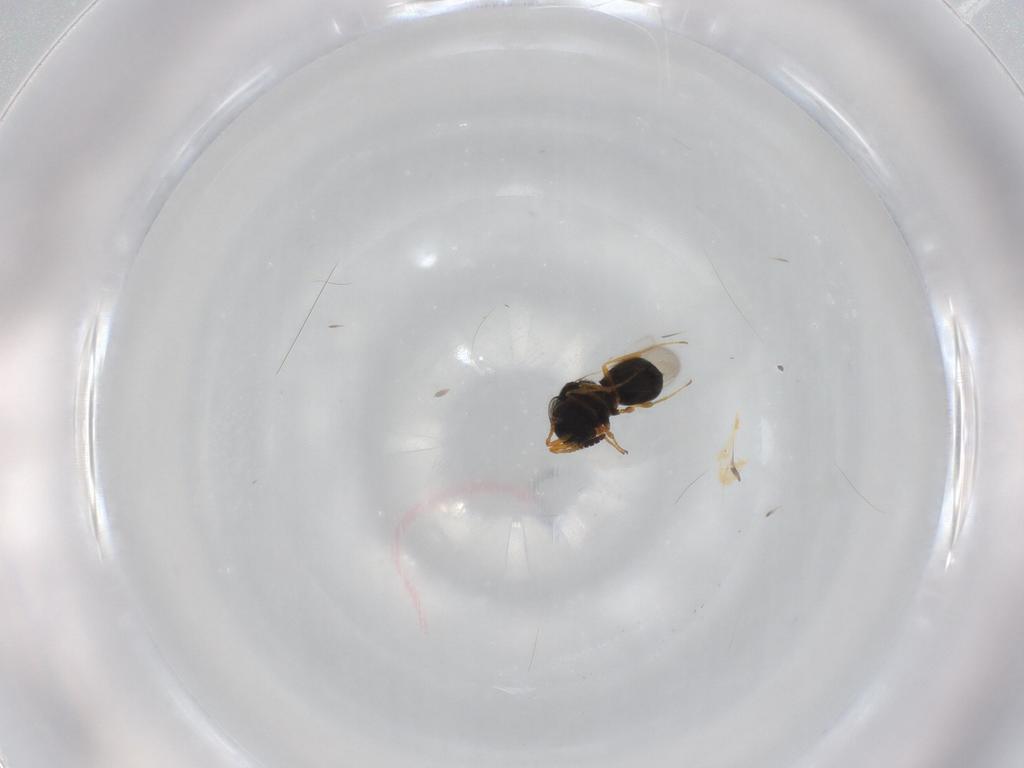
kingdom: Animalia
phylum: Arthropoda
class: Insecta
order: Hymenoptera
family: Scelionidae
